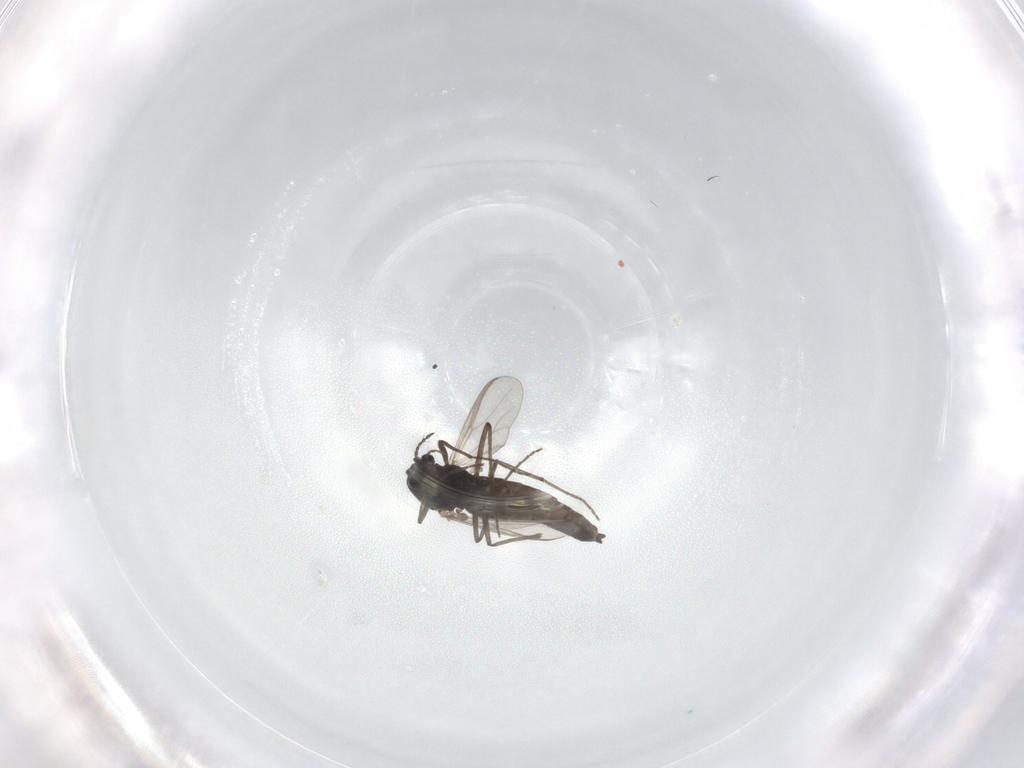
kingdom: Animalia
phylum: Arthropoda
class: Insecta
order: Diptera
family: Chironomidae
